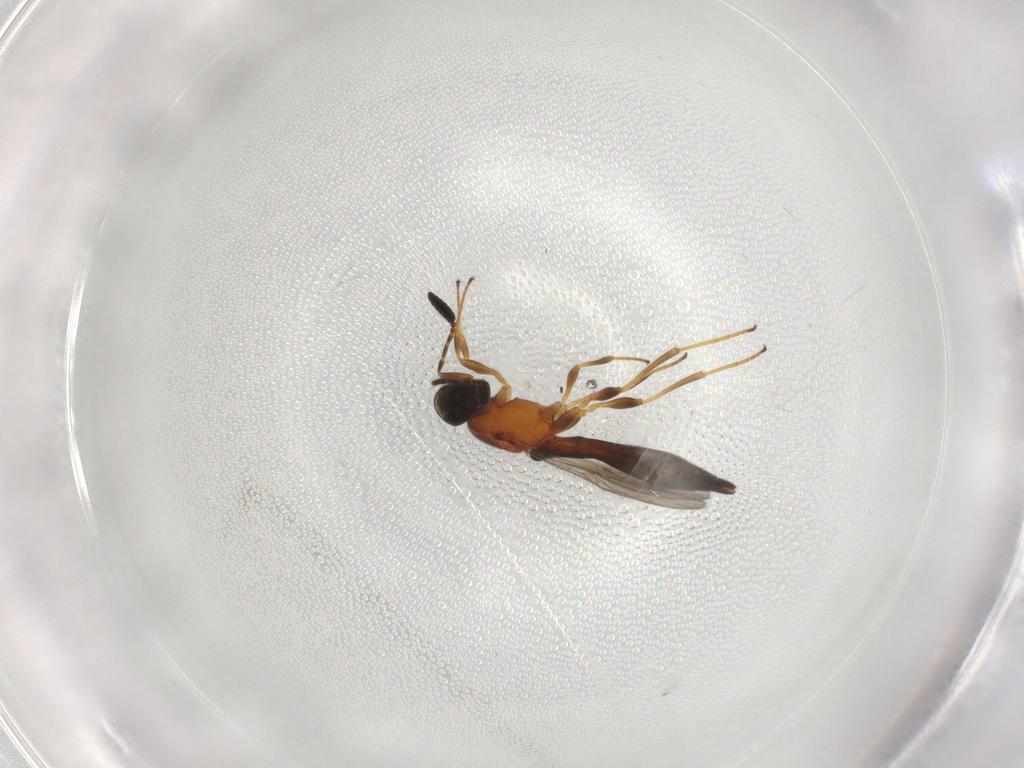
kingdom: Animalia
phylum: Arthropoda
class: Insecta
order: Hymenoptera
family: Scelionidae
